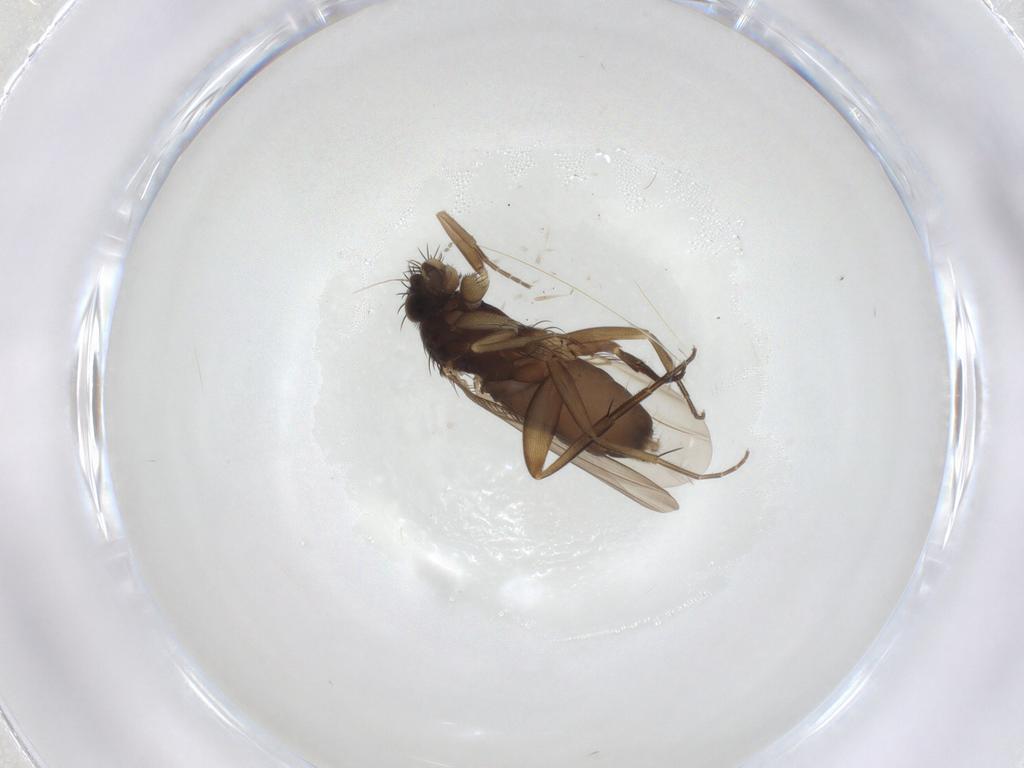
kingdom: Animalia
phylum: Arthropoda
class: Insecta
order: Diptera
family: Phoridae
